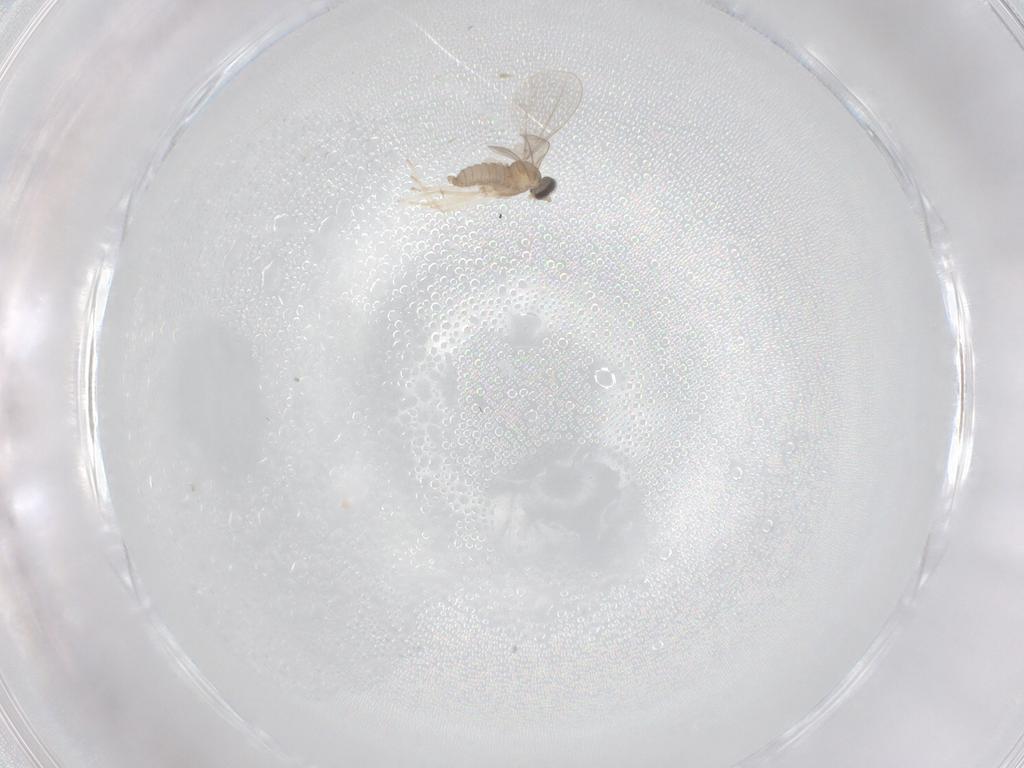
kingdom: Animalia
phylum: Arthropoda
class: Insecta
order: Diptera
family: Cecidomyiidae
